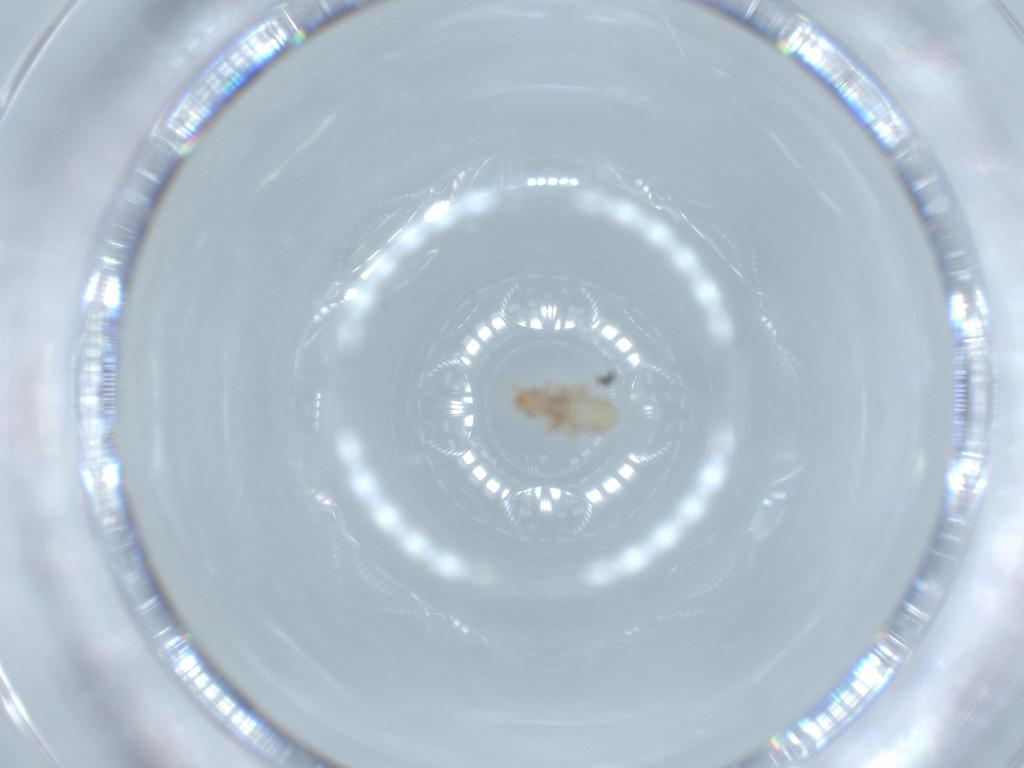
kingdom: Animalia
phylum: Arthropoda
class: Insecta
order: Psocodea
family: Liposcelididae
